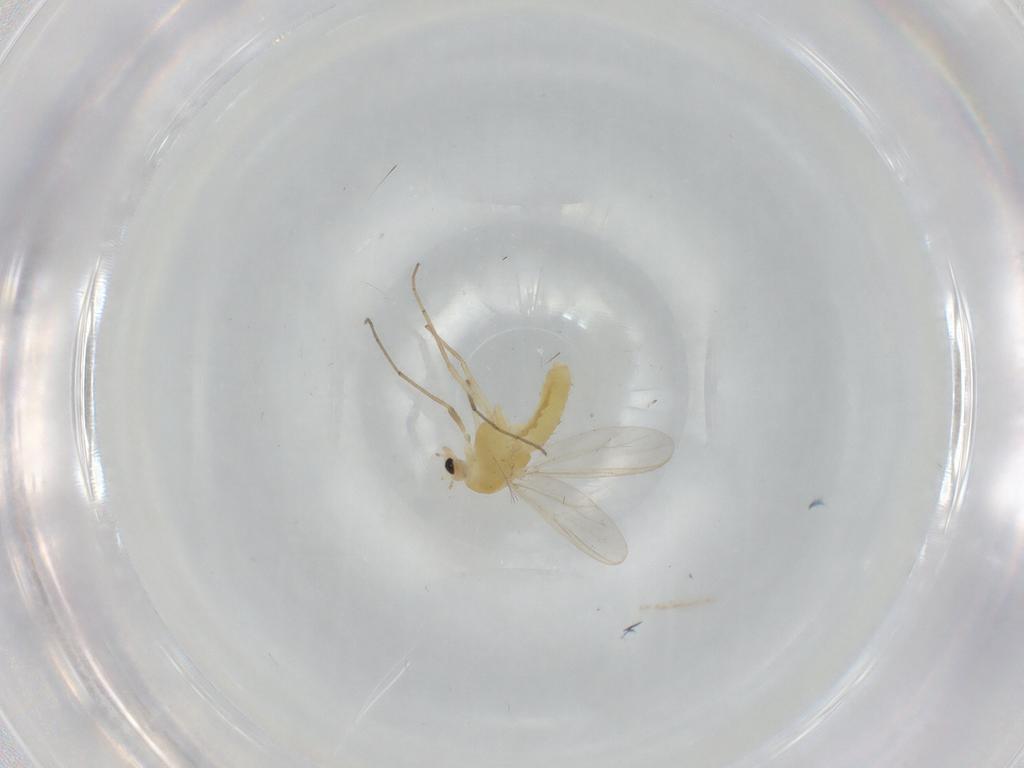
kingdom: Animalia
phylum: Arthropoda
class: Insecta
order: Diptera
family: Chironomidae
